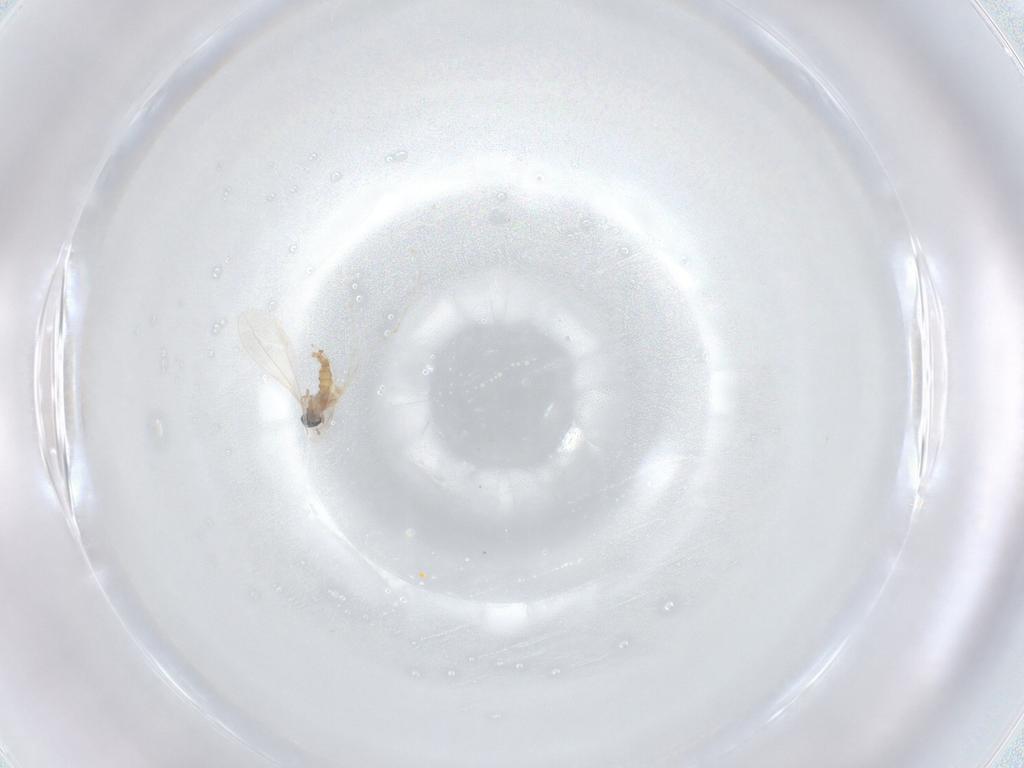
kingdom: Animalia
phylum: Arthropoda
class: Insecta
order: Diptera
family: Cecidomyiidae
